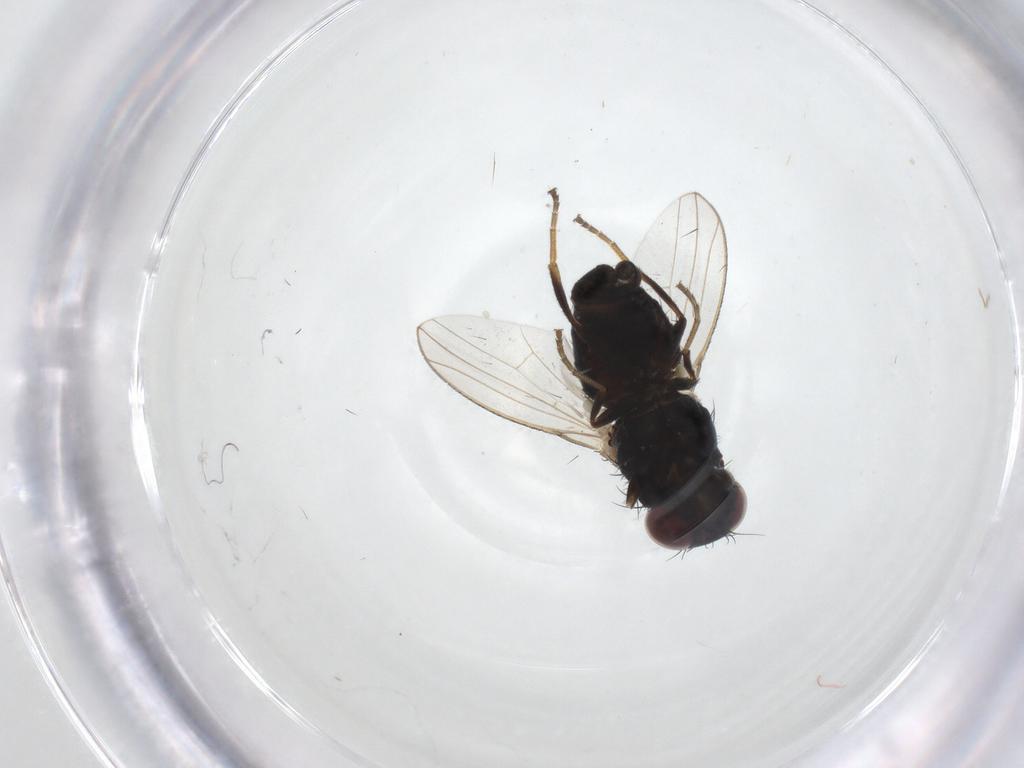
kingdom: Animalia
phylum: Arthropoda
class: Insecta
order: Diptera
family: Carnidae
